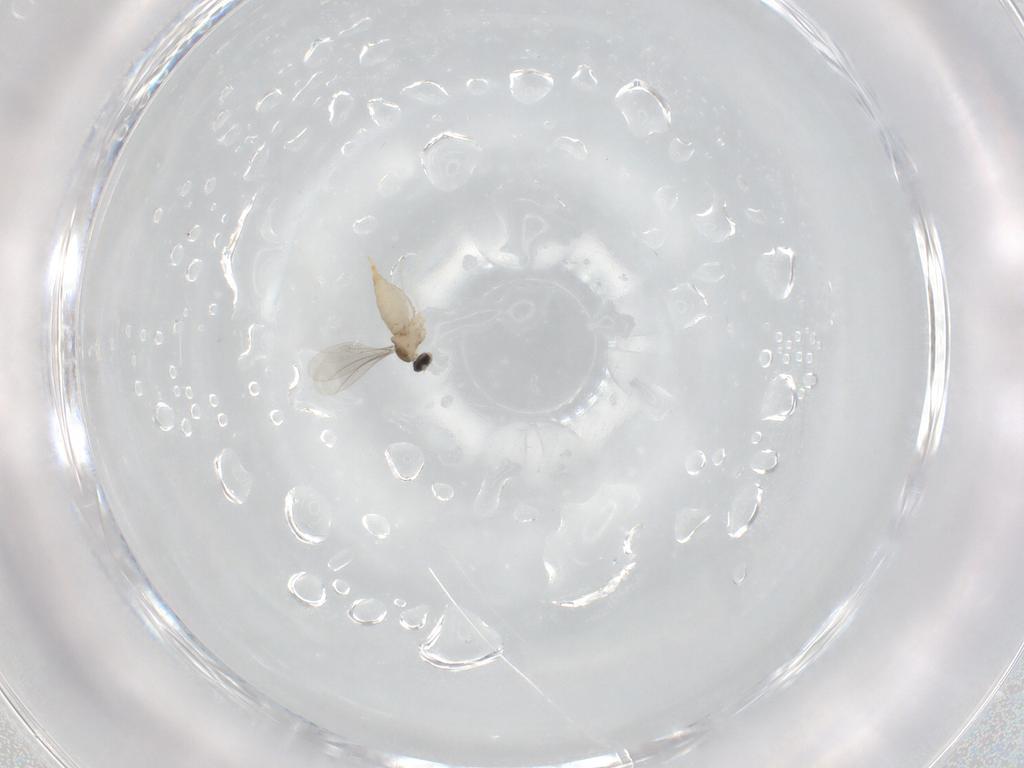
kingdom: Animalia
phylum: Arthropoda
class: Insecta
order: Diptera
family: Cecidomyiidae
